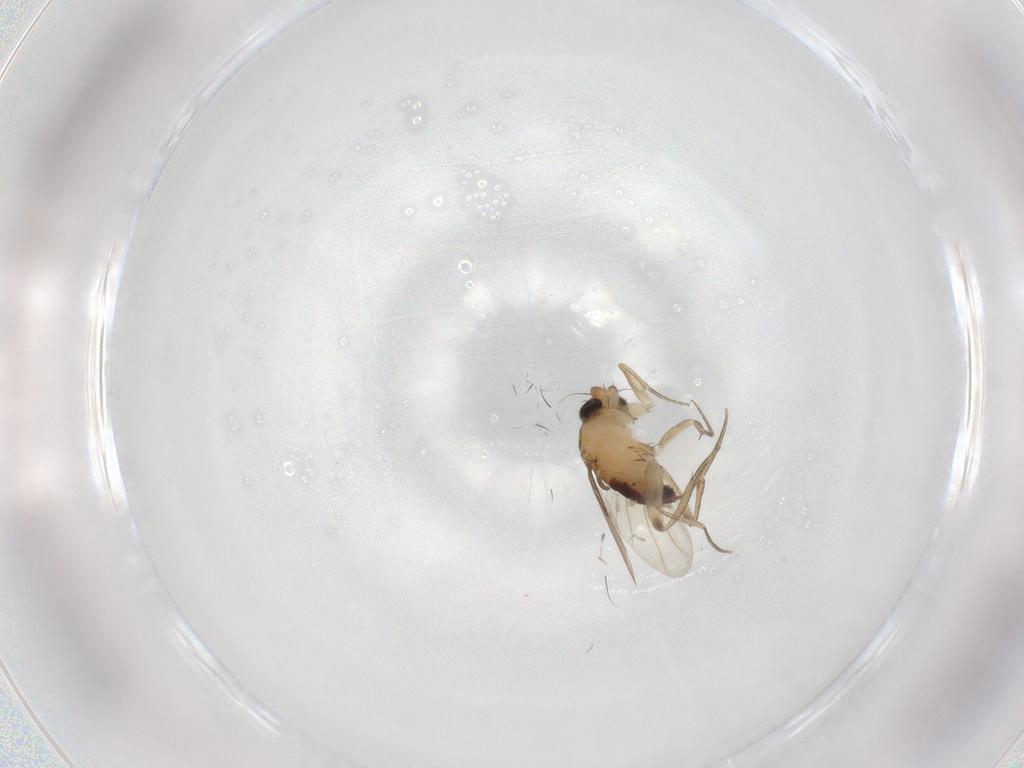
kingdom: Animalia
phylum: Arthropoda
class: Insecta
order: Diptera
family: Phoridae
